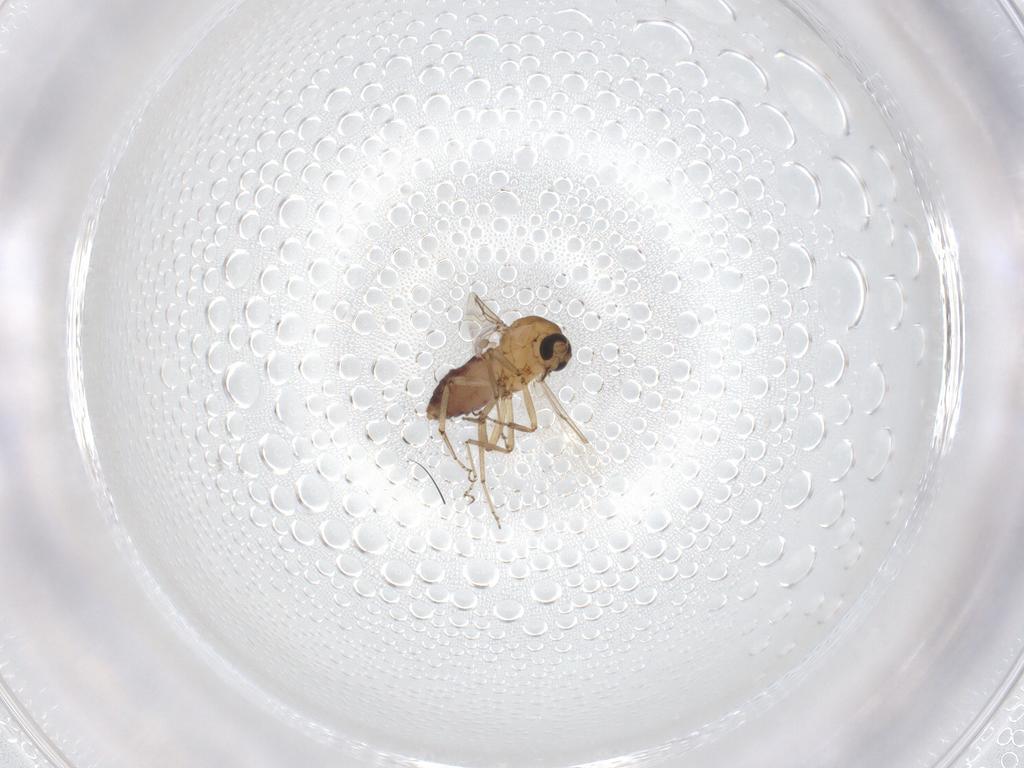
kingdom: Animalia
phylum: Arthropoda
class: Insecta
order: Diptera
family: Ceratopogonidae
